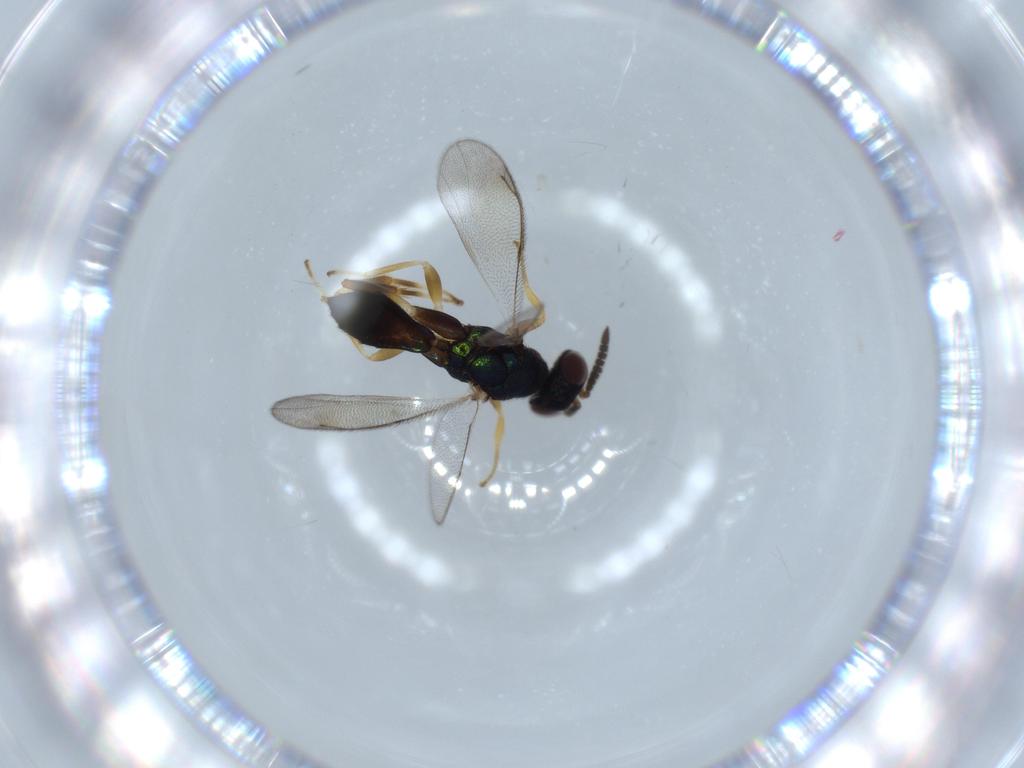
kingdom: Animalia
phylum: Arthropoda
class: Insecta
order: Hymenoptera
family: Cleonyminae
